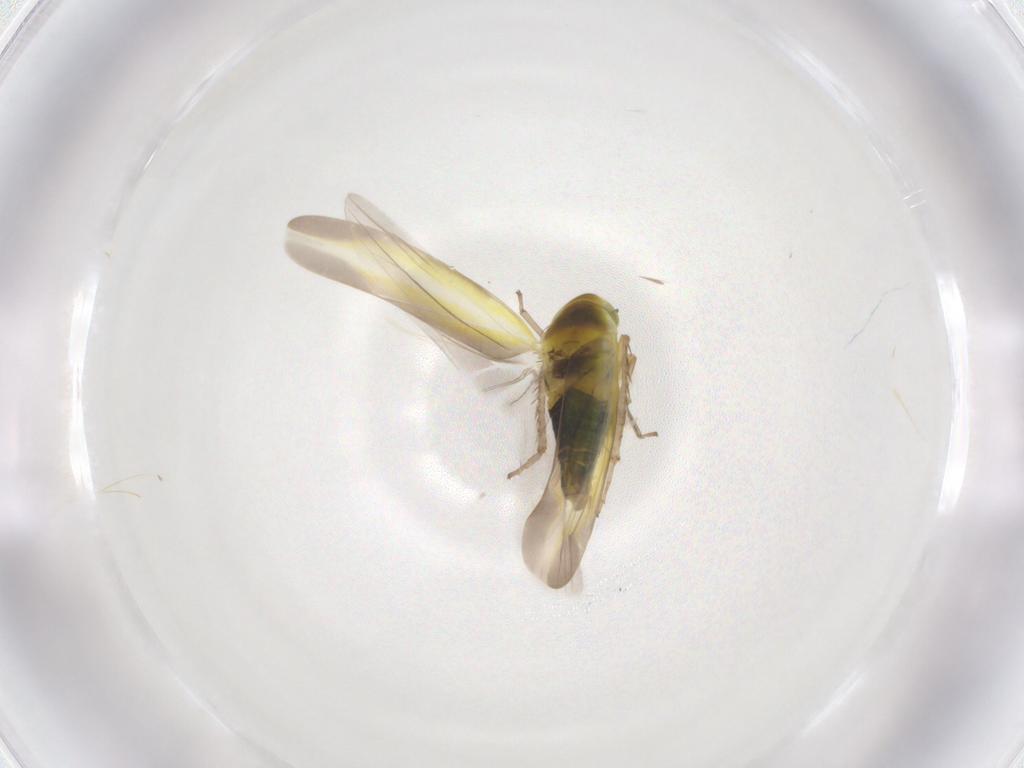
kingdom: Animalia
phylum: Arthropoda
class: Insecta
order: Hemiptera
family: Cicadellidae
